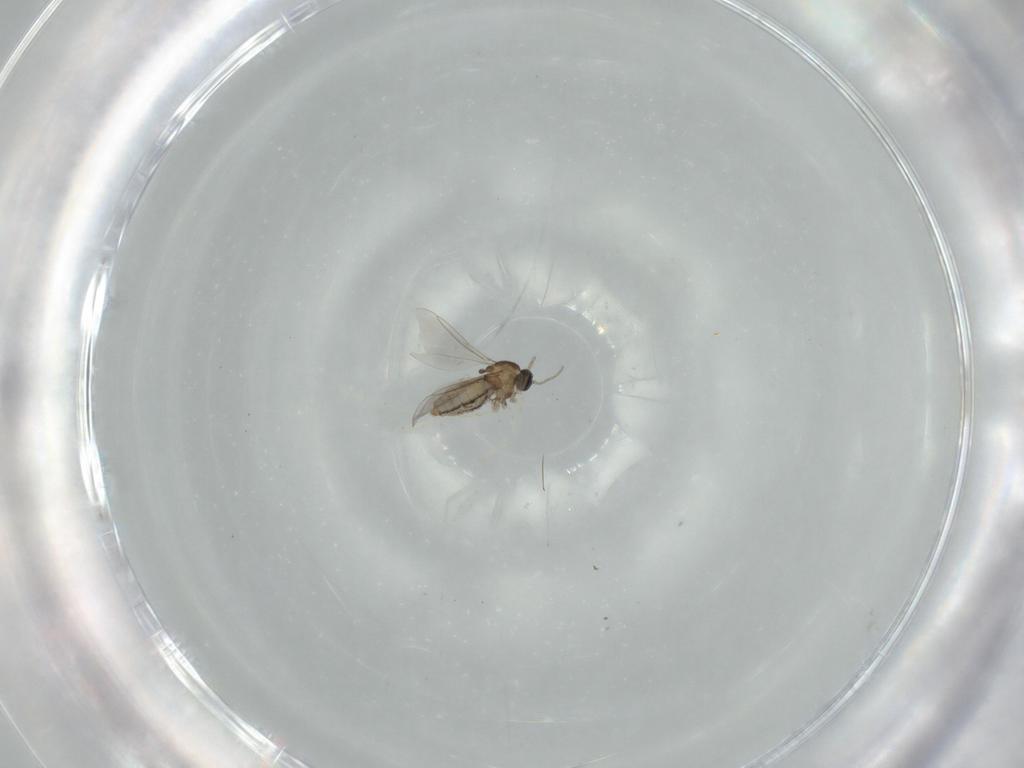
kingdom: Animalia
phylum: Arthropoda
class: Insecta
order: Diptera
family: Cecidomyiidae
